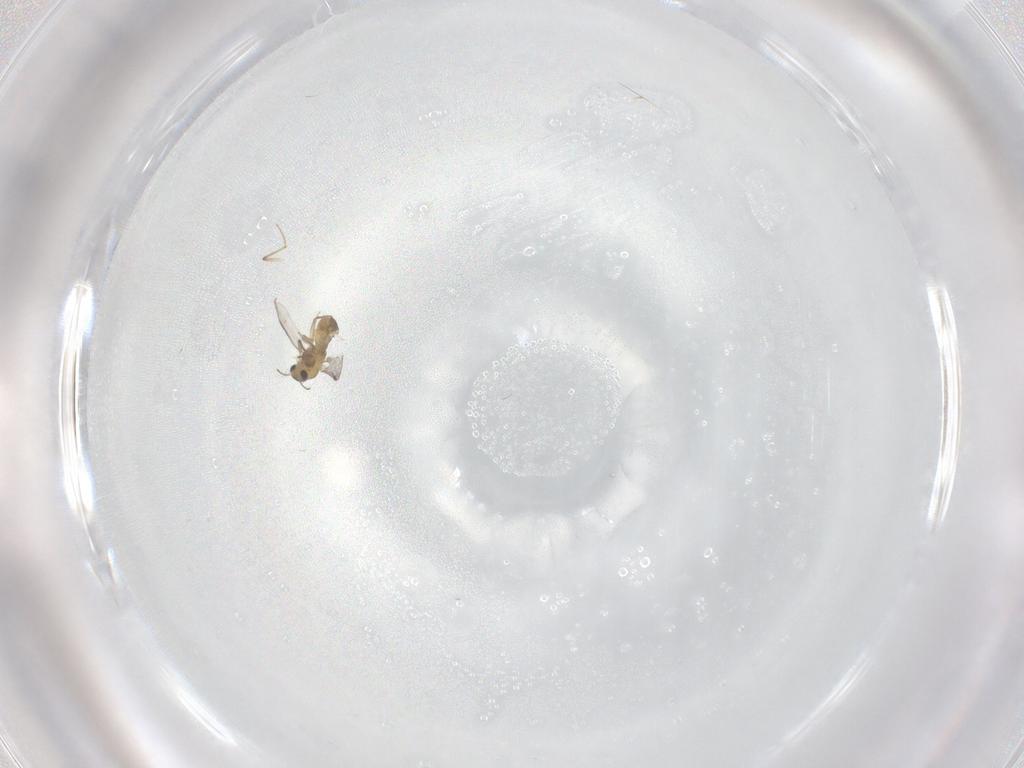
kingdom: Animalia
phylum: Arthropoda
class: Insecta
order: Diptera
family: Chironomidae
